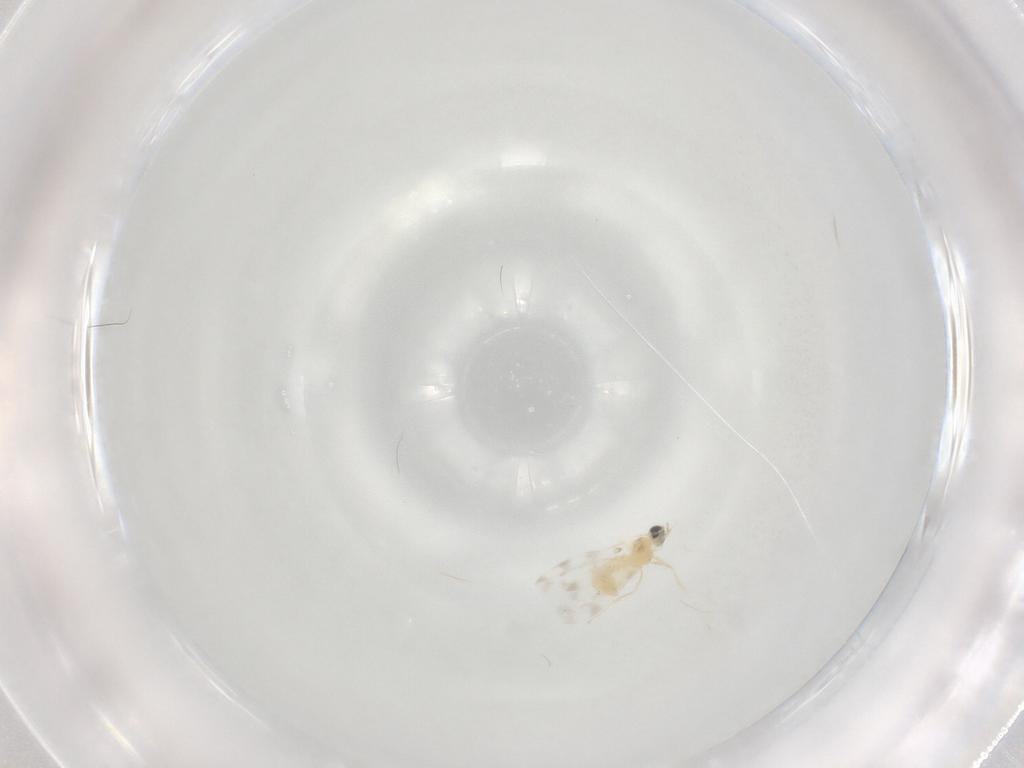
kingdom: Animalia
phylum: Arthropoda
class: Insecta
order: Diptera
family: Cecidomyiidae
